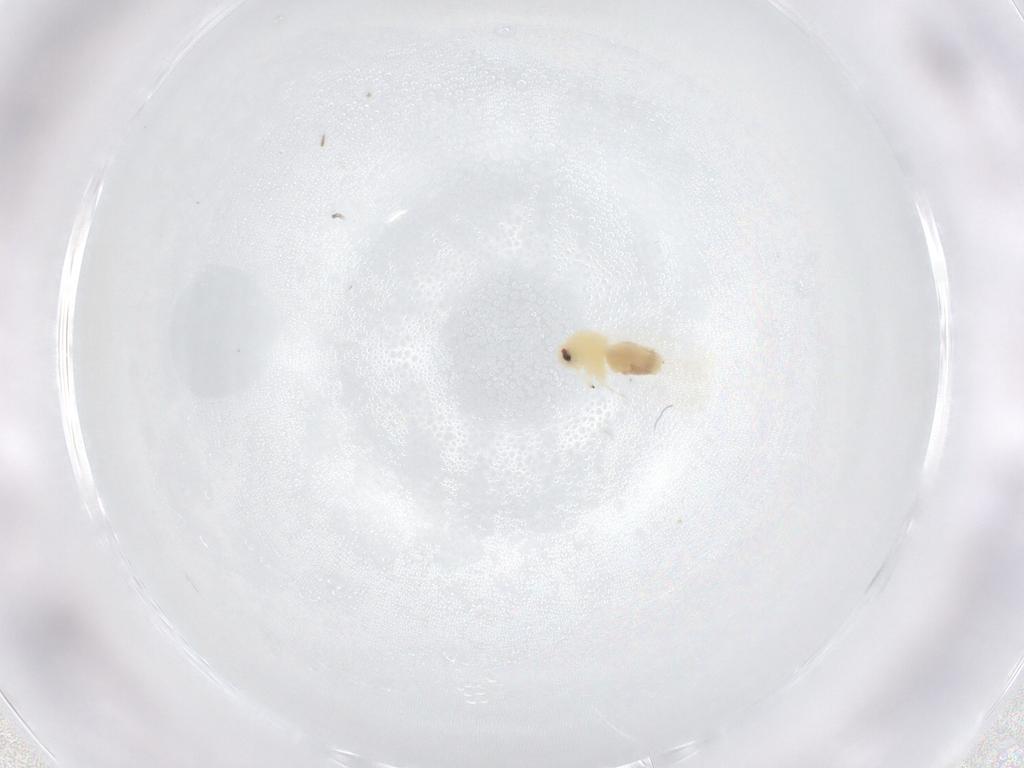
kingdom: Animalia
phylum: Arthropoda
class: Insecta
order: Hemiptera
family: Aleyrodidae
